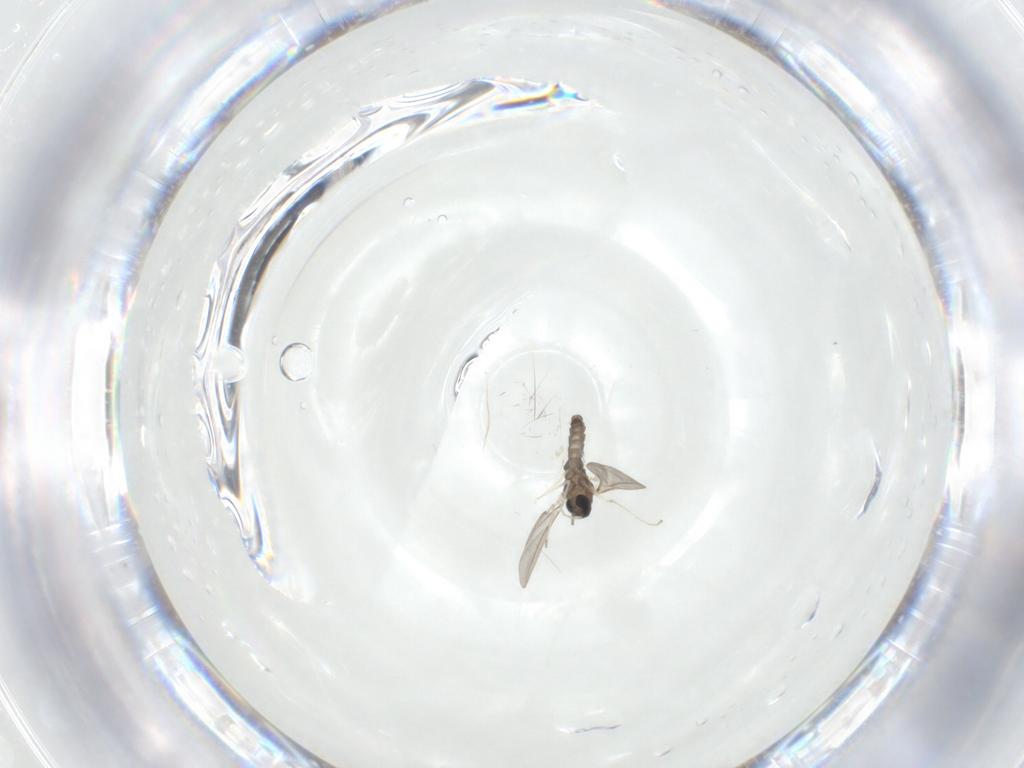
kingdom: Animalia
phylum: Arthropoda
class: Insecta
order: Diptera
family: Cecidomyiidae
